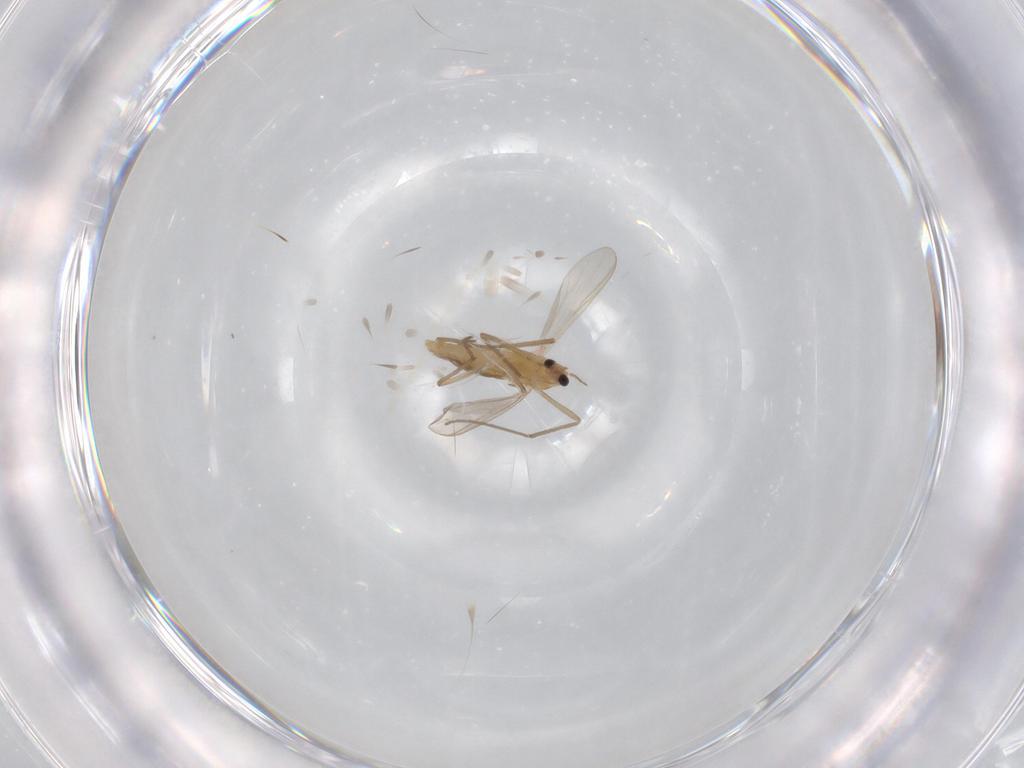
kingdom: Animalia
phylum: Arthropoda
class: Insecta
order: Diptera
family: Chironomidae
